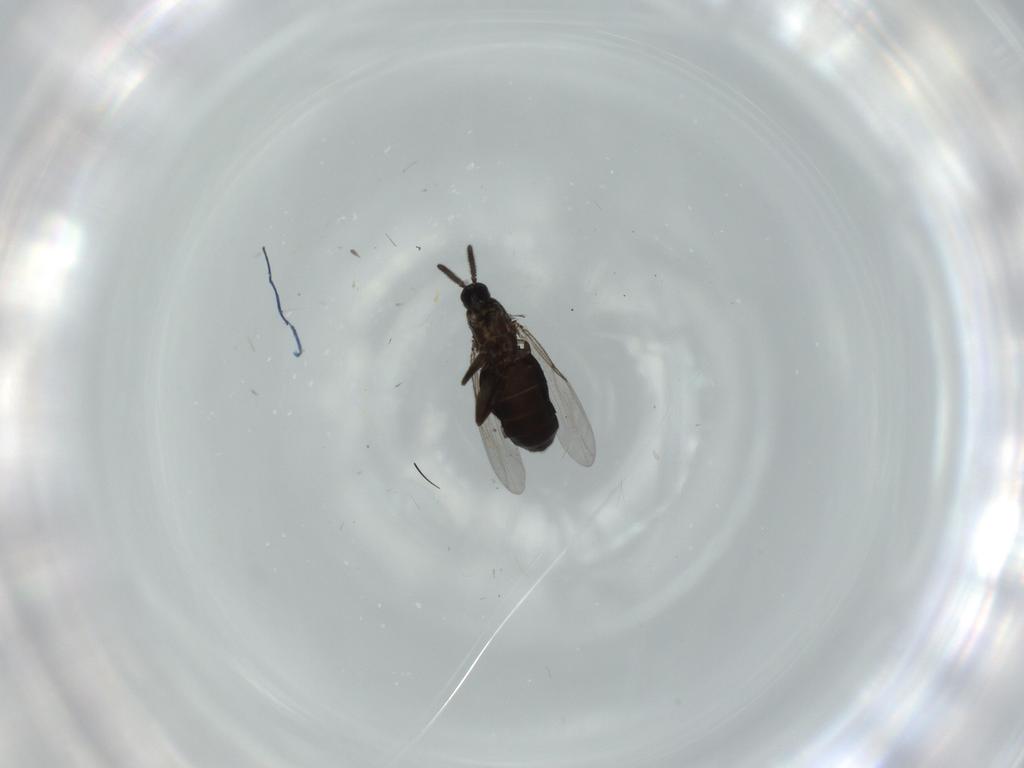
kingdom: Animalia
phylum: Arthropoda
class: Insecta
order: Diptera
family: Scatopsidae
